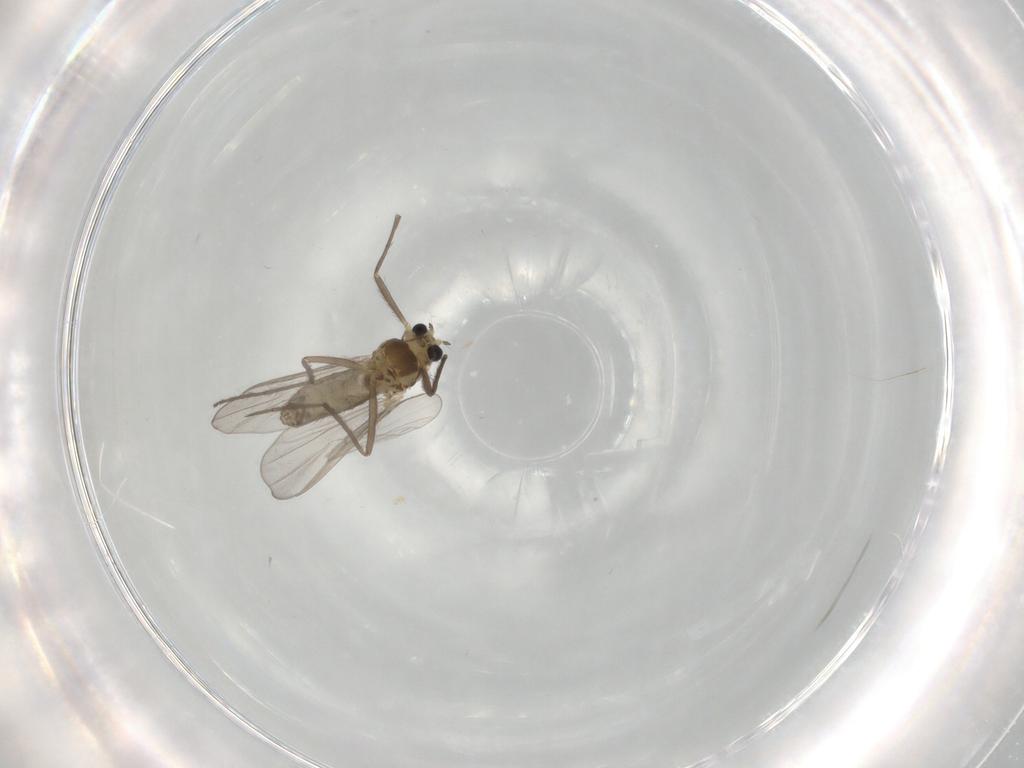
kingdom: Animalia
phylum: Arthropoda
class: Insecta
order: Diptera
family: Chironomidae
